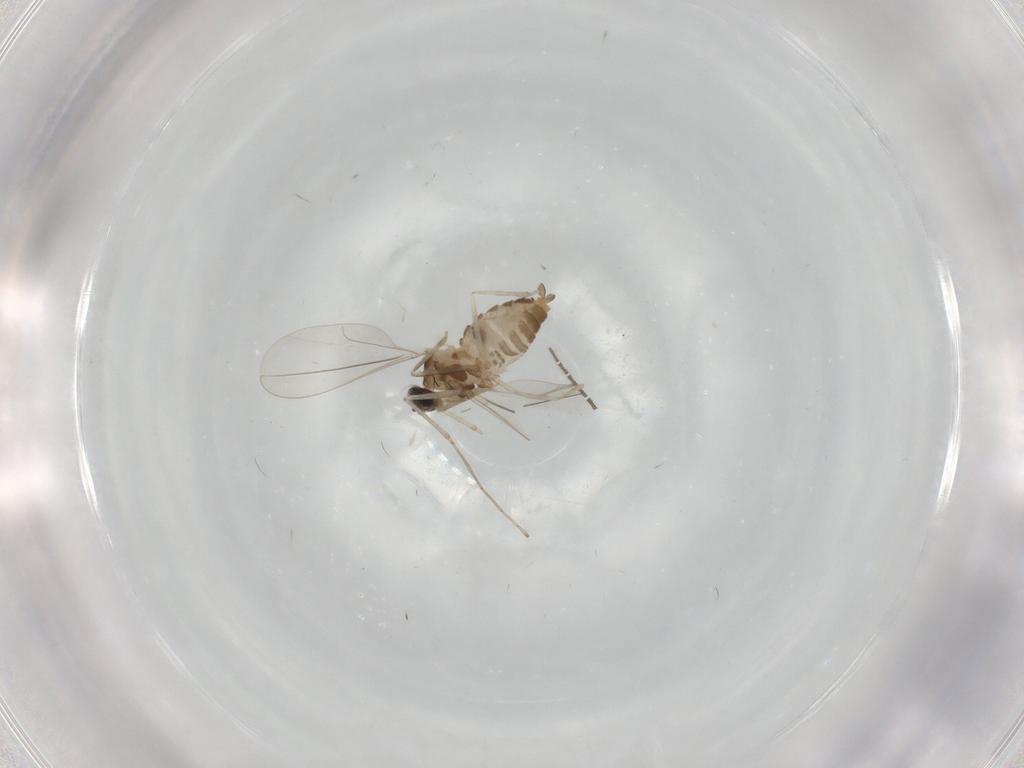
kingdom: Animalia
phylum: Arthropoda
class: Insecta
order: Diptera
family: Cecidomyiidae
